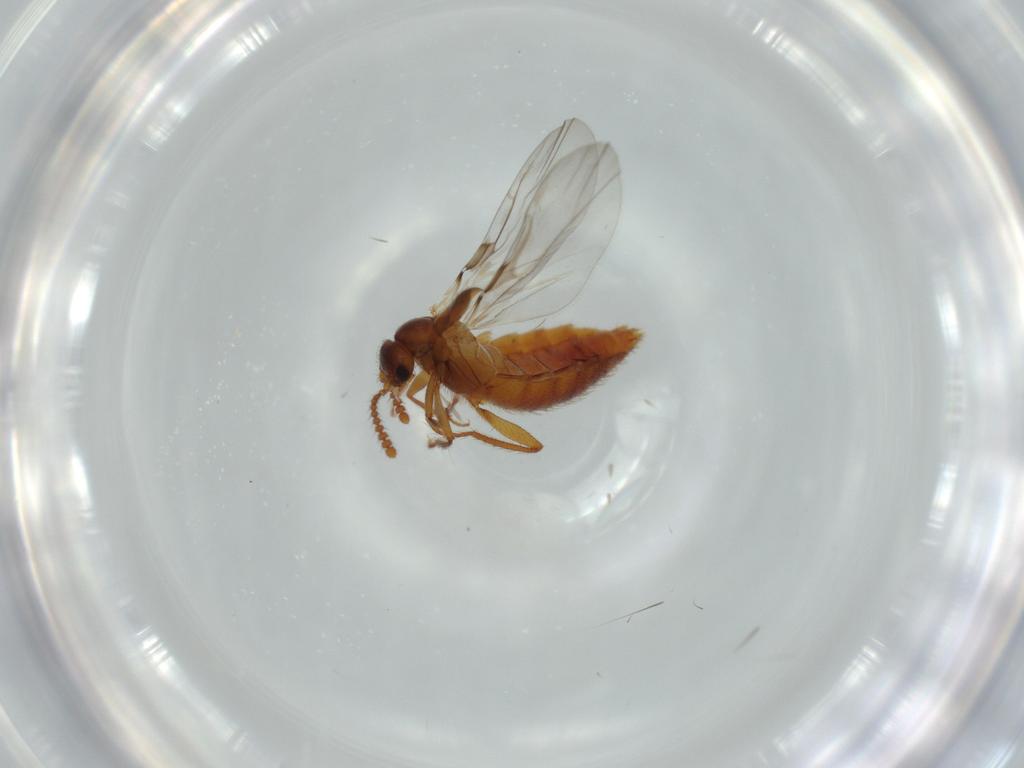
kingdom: Animalia
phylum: Arthropoda
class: Insecta
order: Coleoptera
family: Staphylinidae
